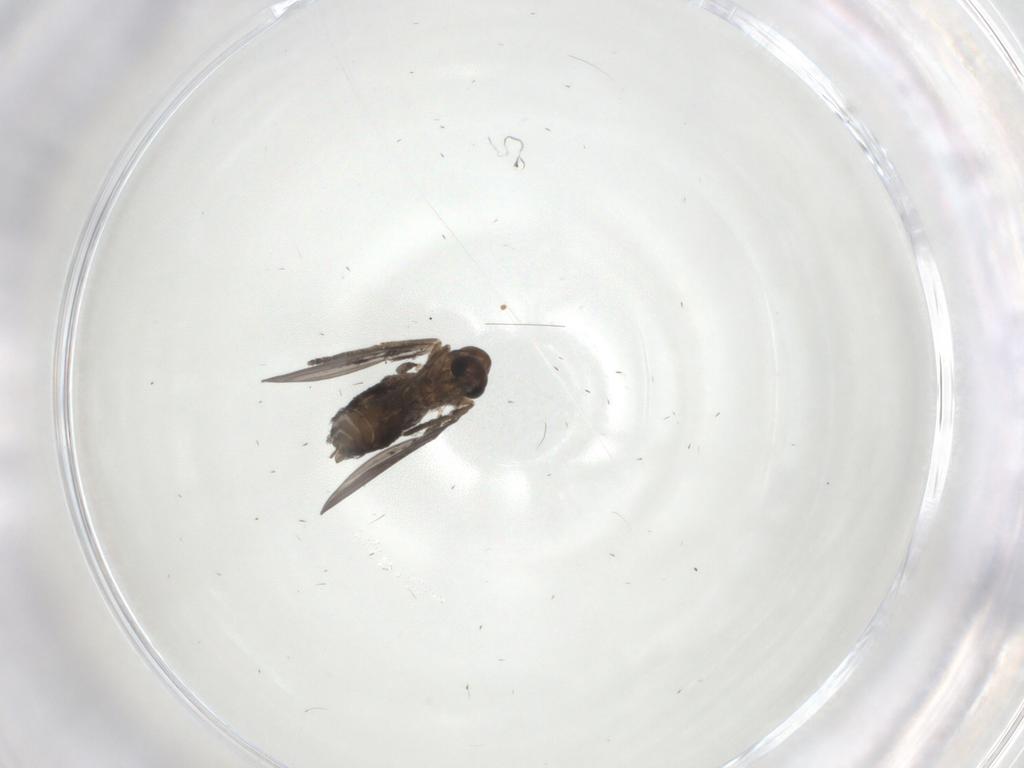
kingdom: Animalia
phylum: Arthropoda
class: Insecta
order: Diptera
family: Psychodidae
